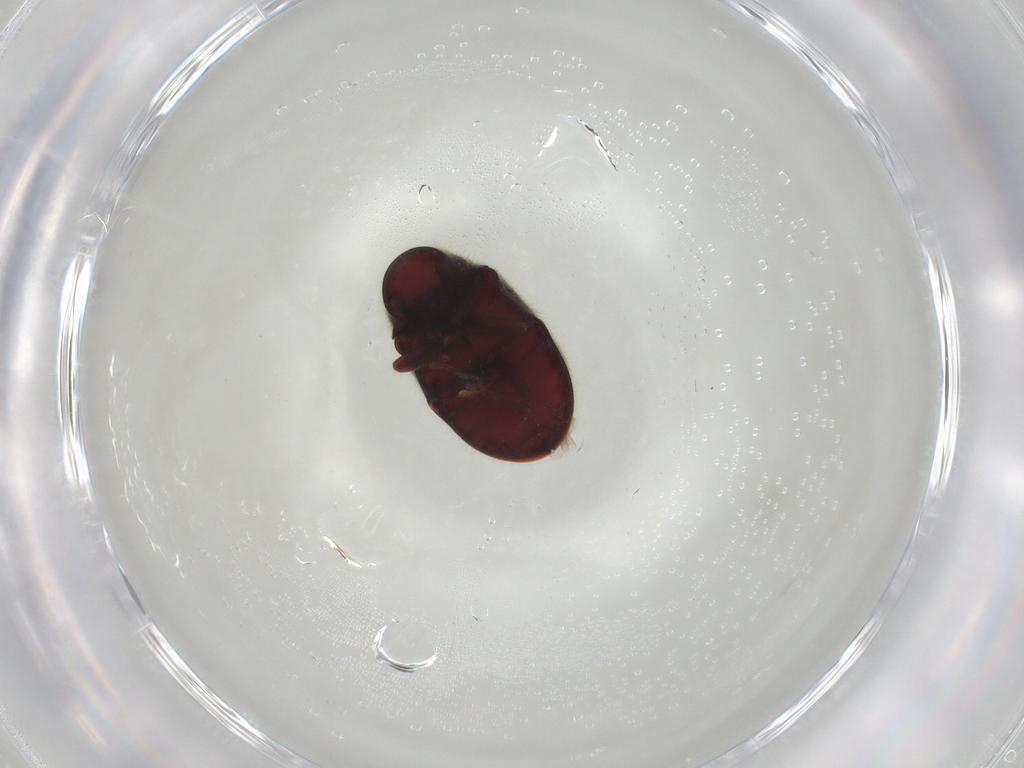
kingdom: Animalia
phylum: Arthropoda
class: Insecta
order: Coleoptera
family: Ptinidae
